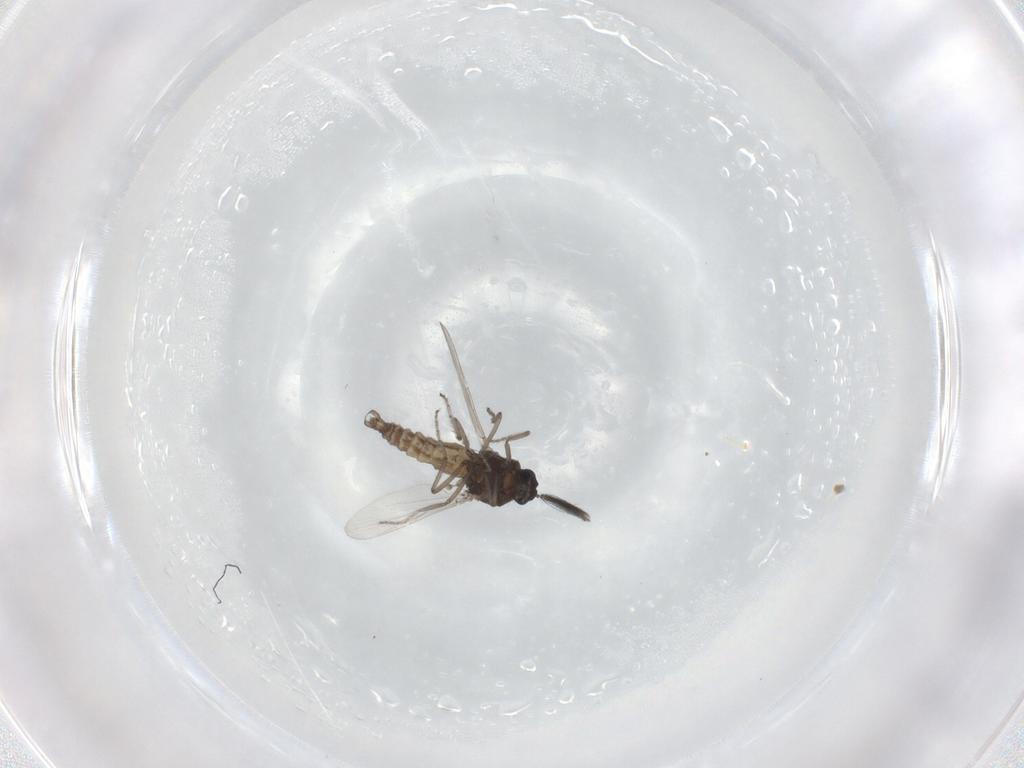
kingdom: Animalia
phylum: Arthropoda
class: Insecta
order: Diptera
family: Ceratopogonidae
